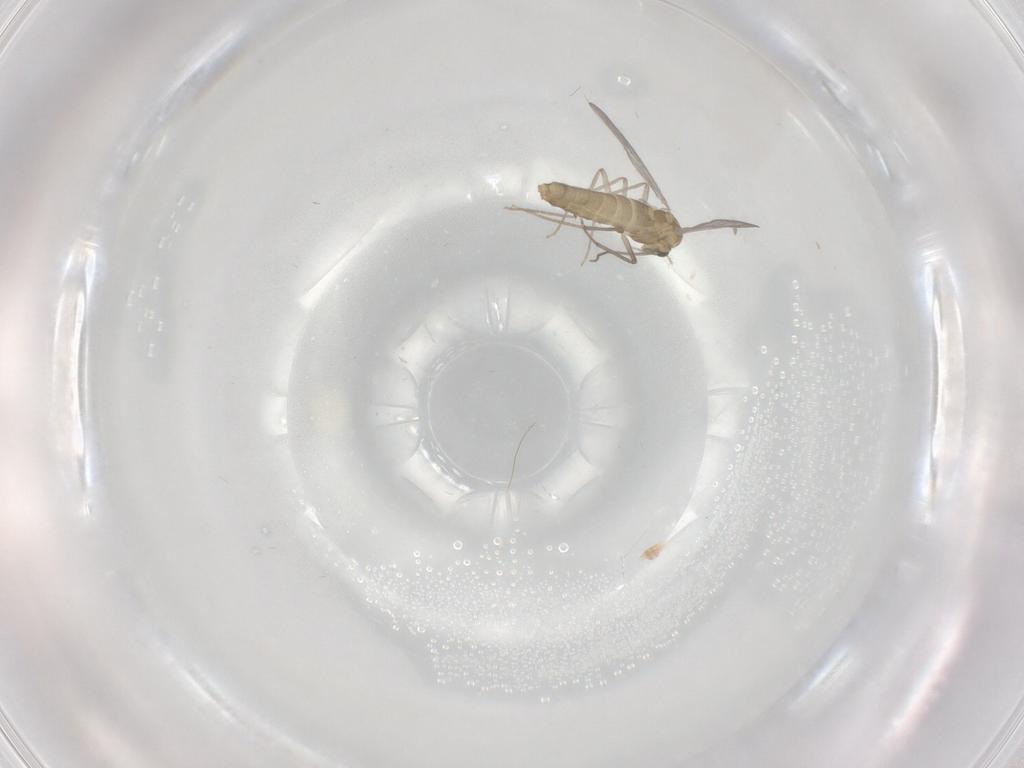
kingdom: Animalia
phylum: Arthropoda
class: Insecta
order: Diptera
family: Chironomidae
